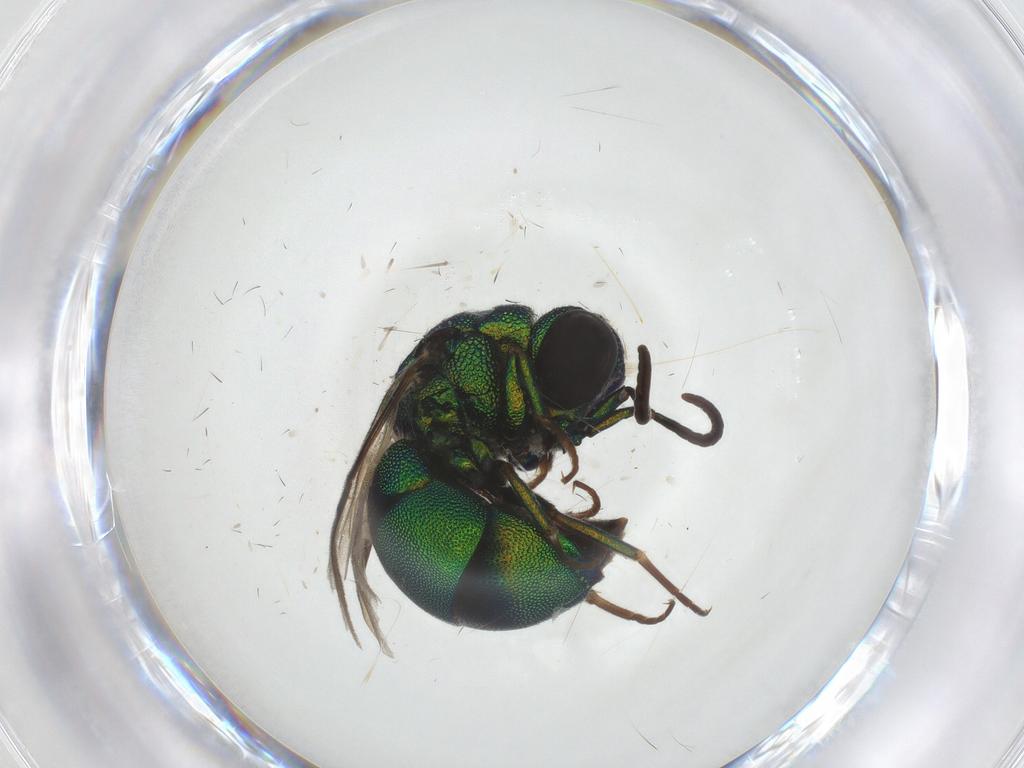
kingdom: Animalia
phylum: Arthropoda
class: Insecta
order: Hymenoptera
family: Chrysididae
